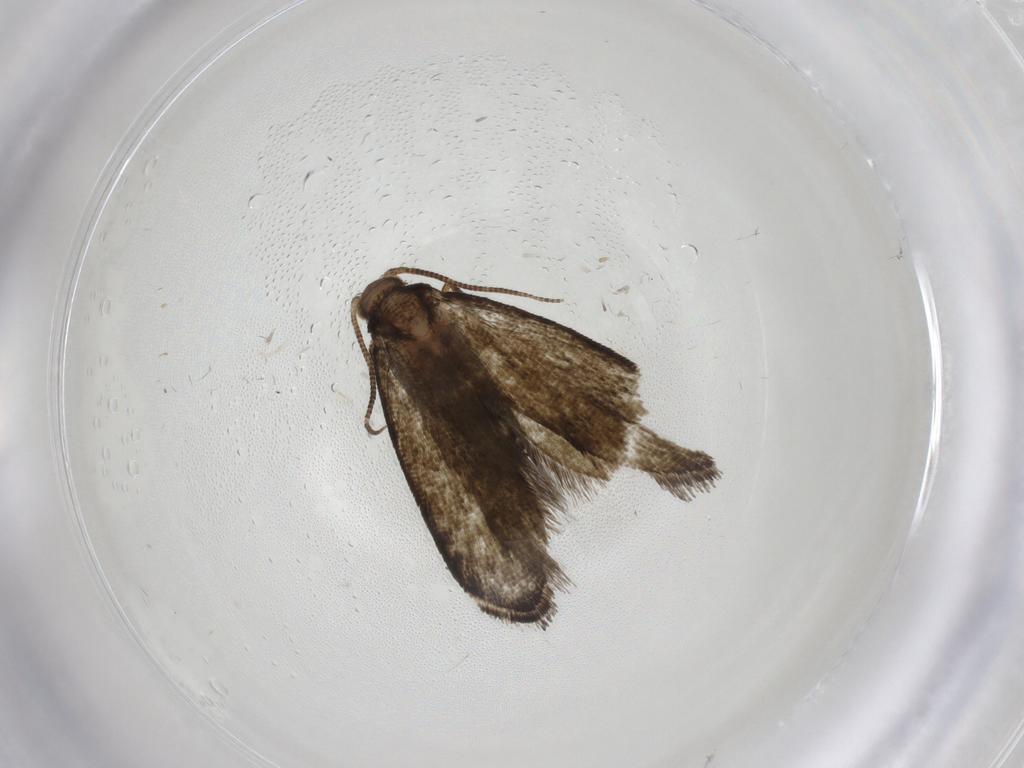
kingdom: Animalia
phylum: Arthropoda
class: Insecta
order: Lepidoptera
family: Tineidae
